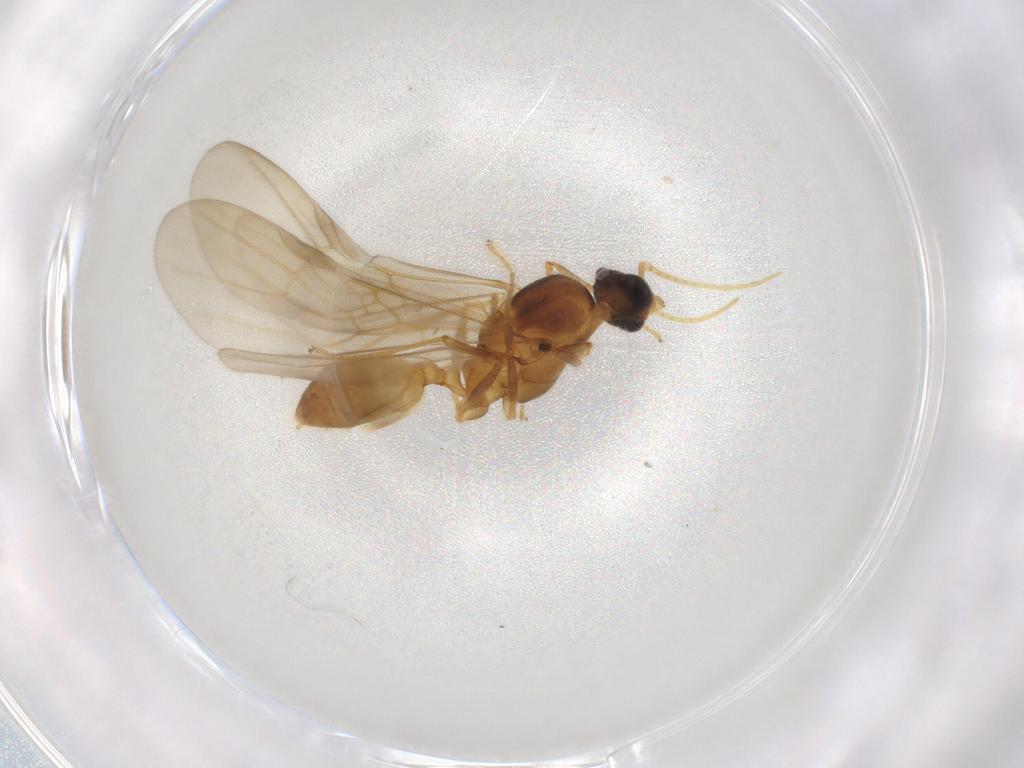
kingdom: Animalia
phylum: Arthropoda
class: Insecta
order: Hymenoptera
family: Formicidae
